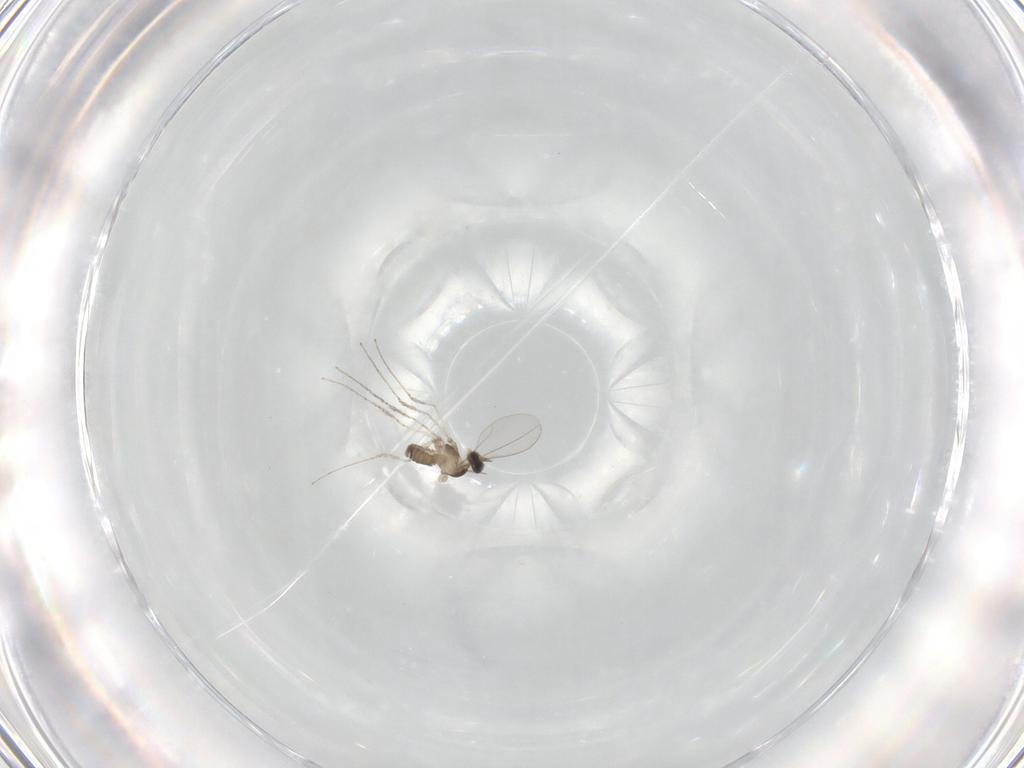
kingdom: Animalia
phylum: Arthropoda
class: Insecta
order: Diptera
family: Cecidomyiidae
